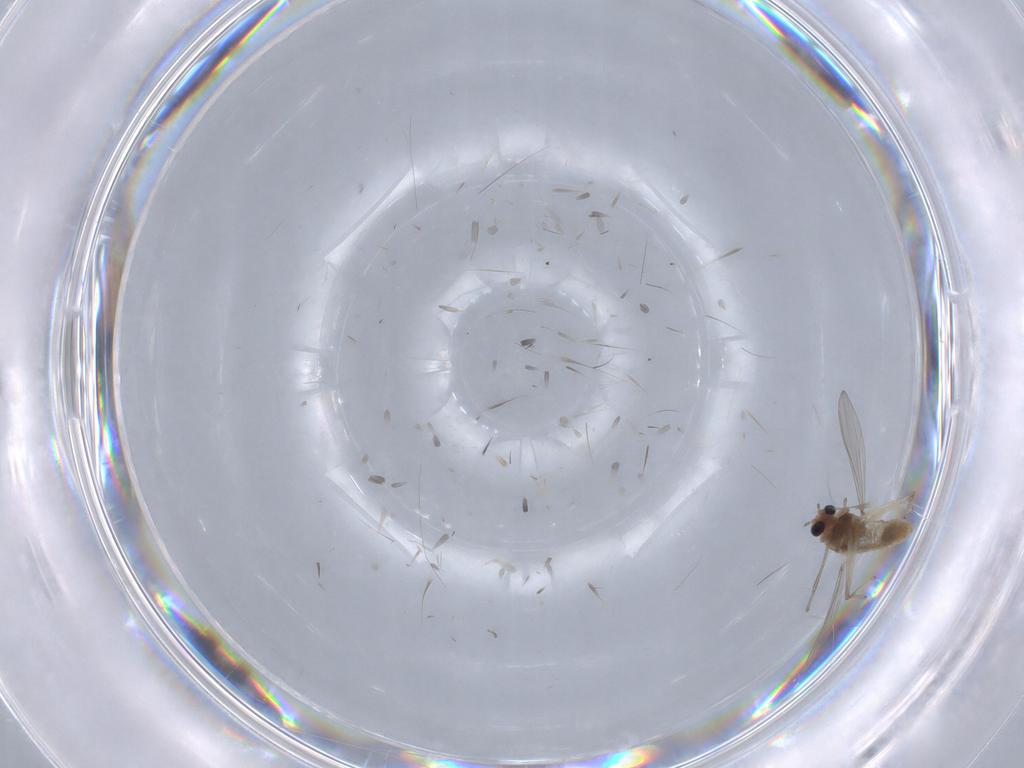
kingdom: Animalia
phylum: Arthropoda
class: Insecta
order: Diptera
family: Chironomidae
